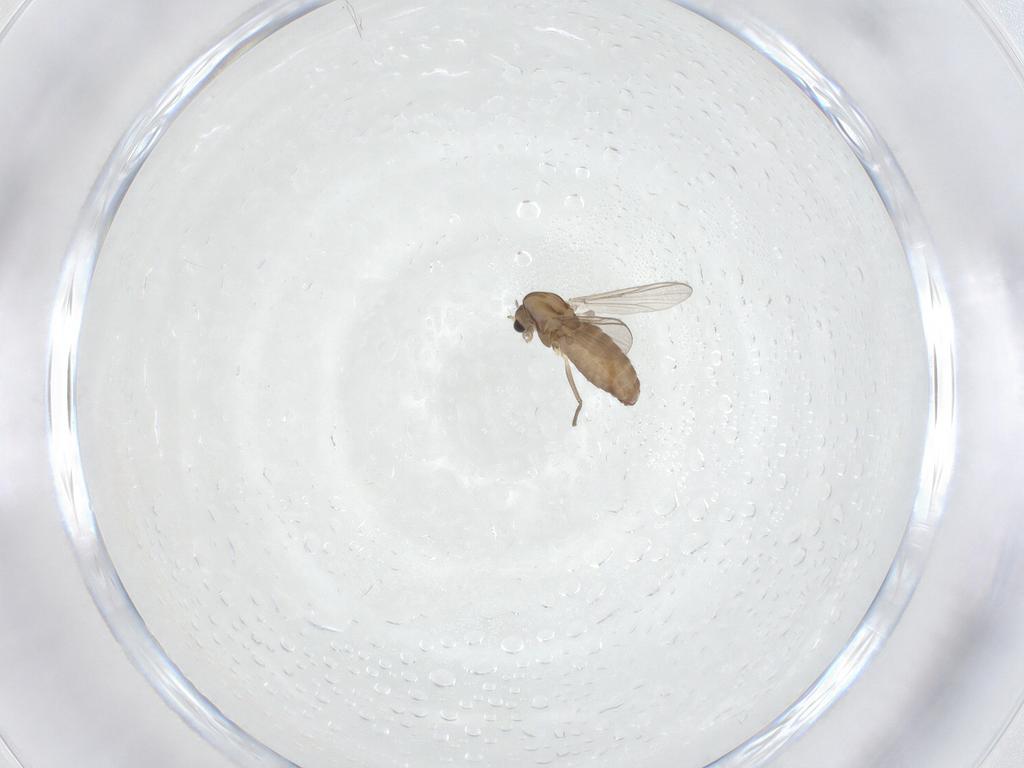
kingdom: Animalia
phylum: Arthropoda
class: Insecta
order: Diptera
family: Chironomidae
